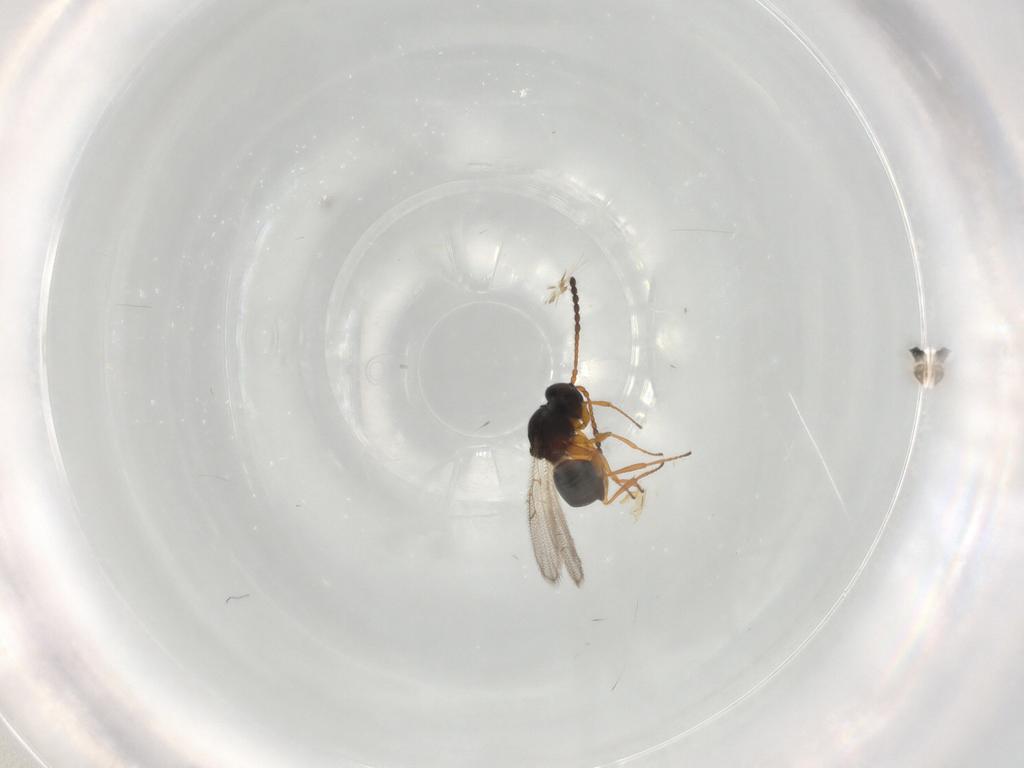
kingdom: Animalia
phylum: Arthropoda
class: Insecta
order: Hymenoptera
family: Figitidae
